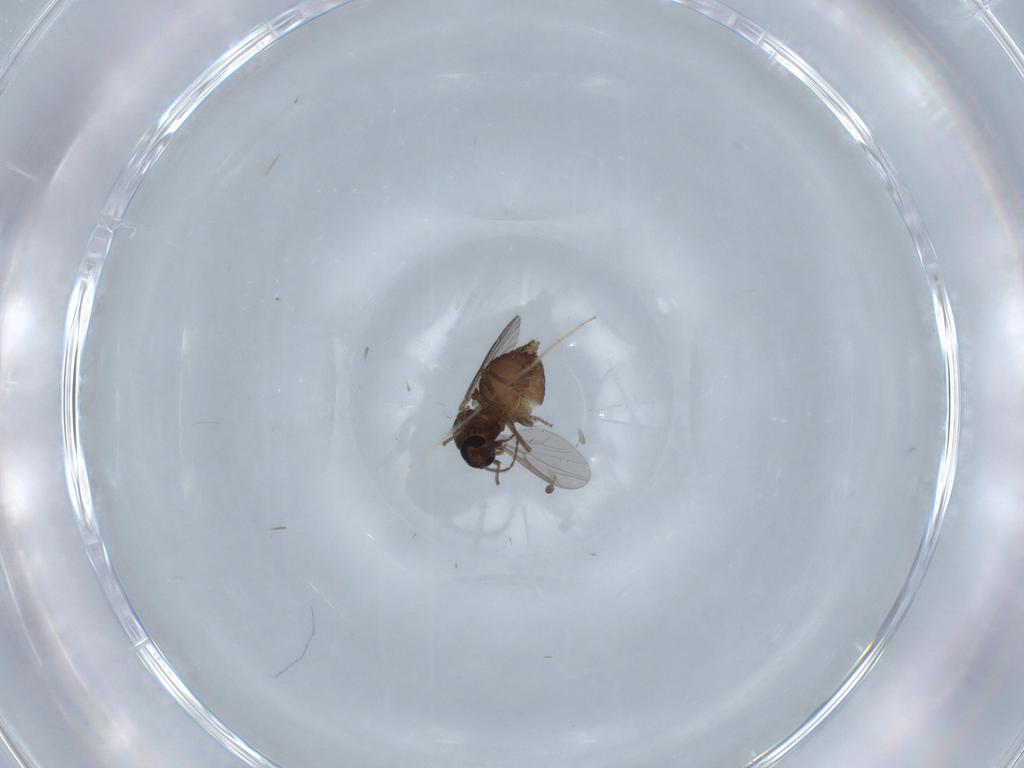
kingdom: Animalia
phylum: Arthropoda
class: Insecta
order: Diptera
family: Ceratopogonidae
